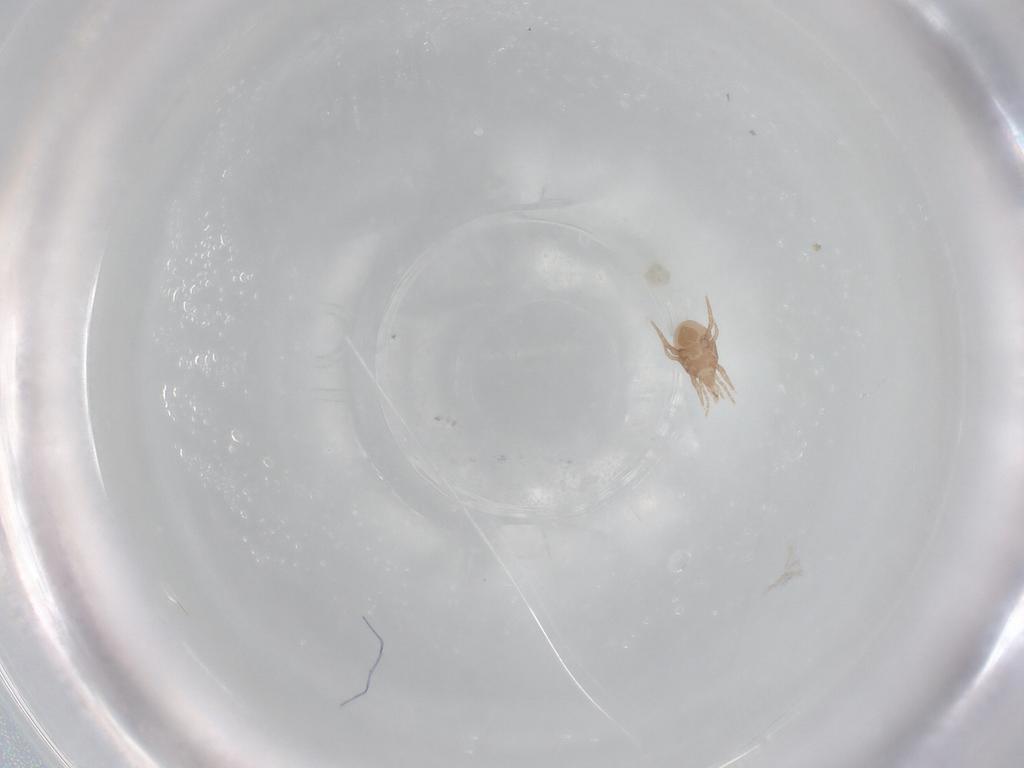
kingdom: Animalia
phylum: Arthropoda
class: Arachnida
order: Mesostigmata
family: Macrochelidae
